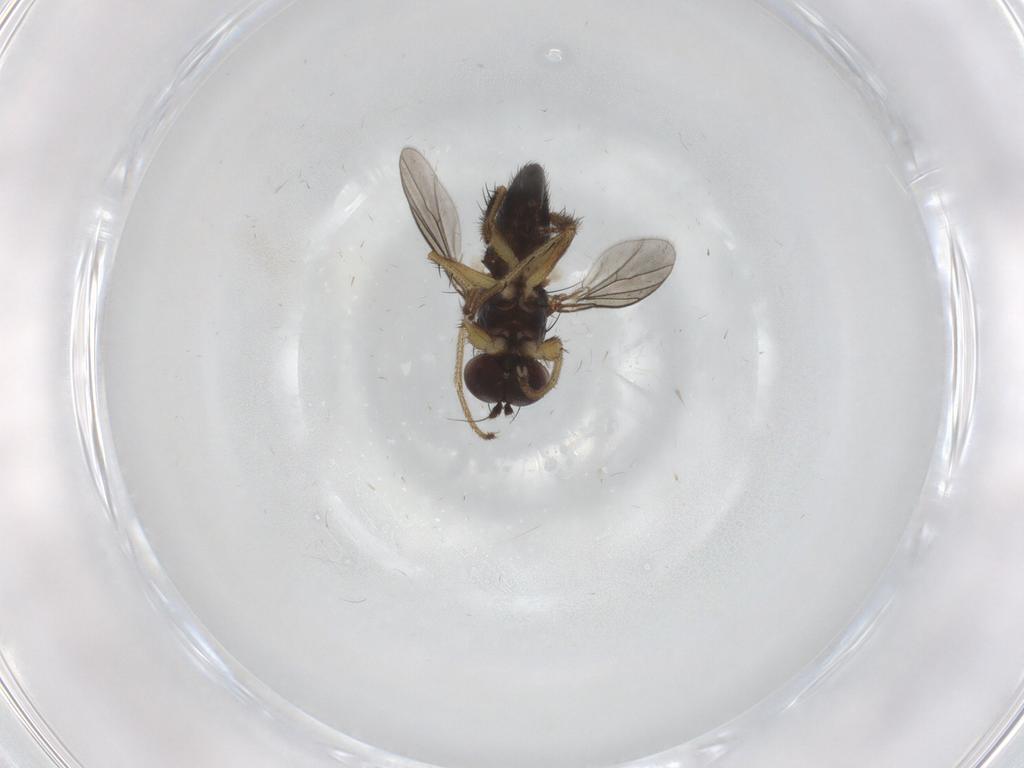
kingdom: Animalia
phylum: Arthropoda
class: Insecta
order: Diptera
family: Dolichopodidae
